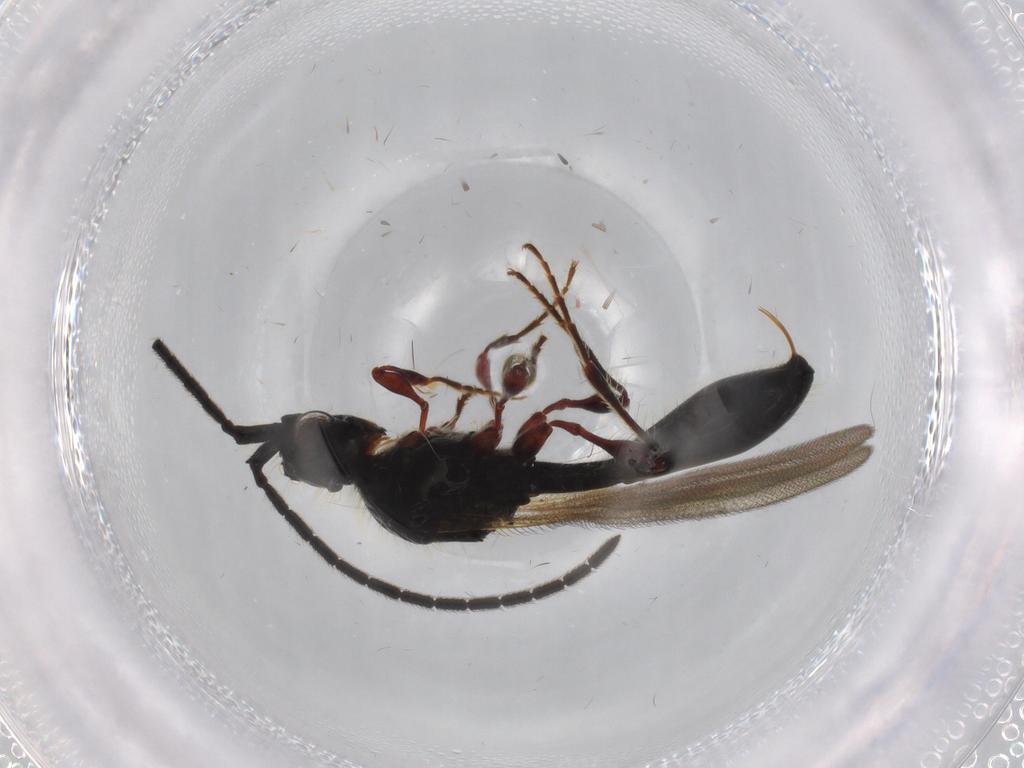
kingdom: Animalia
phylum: Arthropoda
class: Insecta
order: Hymenoptera
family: Diapriidae
